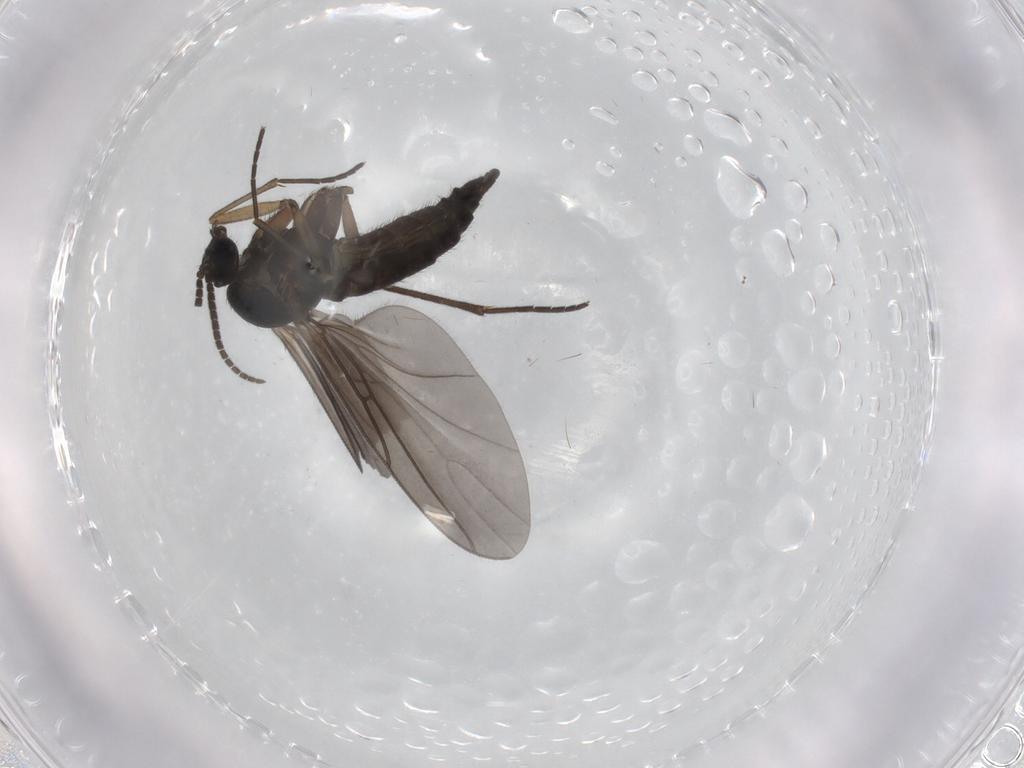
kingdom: Animalia
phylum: Arthropoda
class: Insecta
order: Diptera
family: Sciaridae
